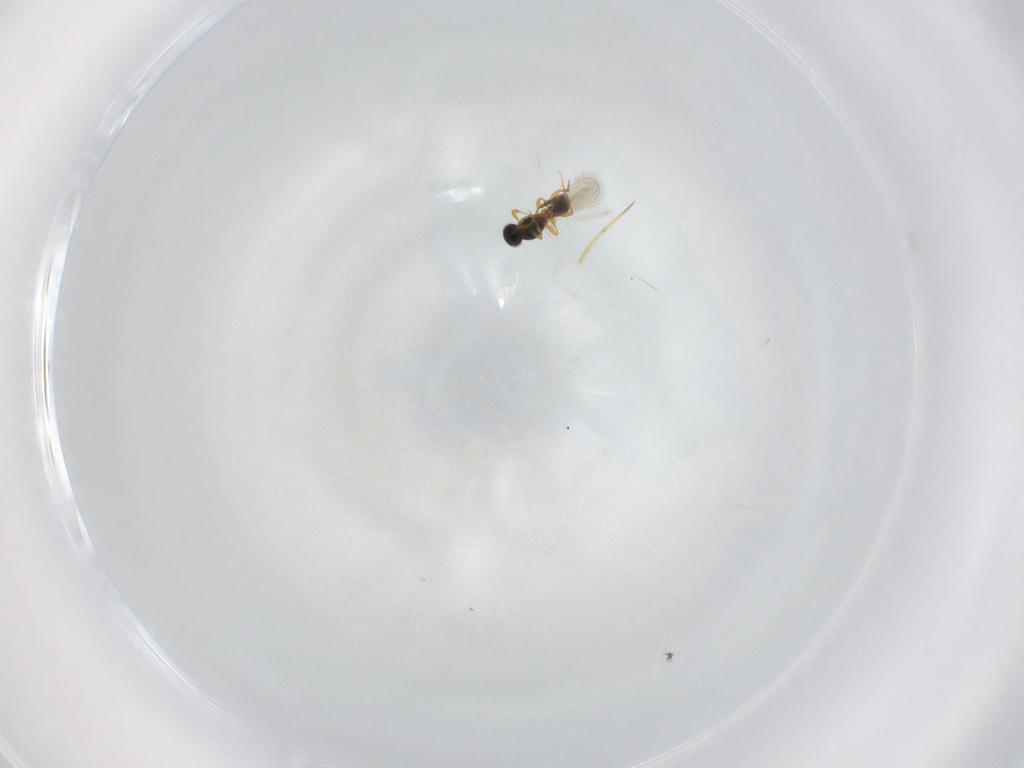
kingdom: Animalia
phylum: Arthropoda
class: Insecta
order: Hymenoptera
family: Platygastridae
